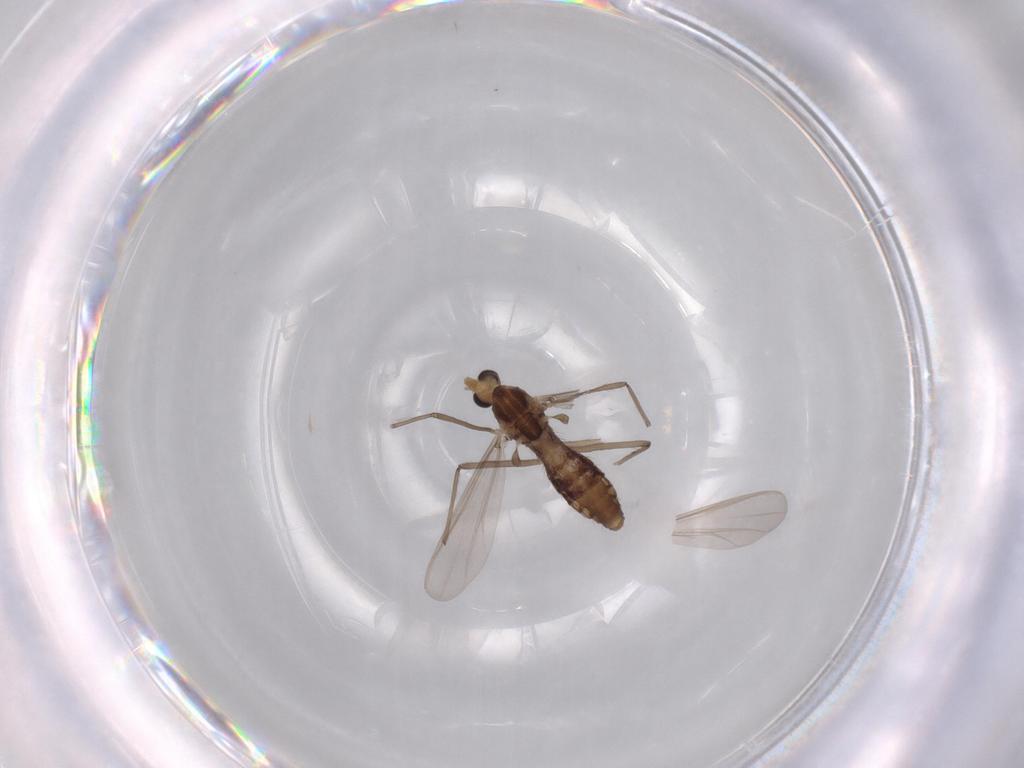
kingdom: Animalia
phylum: Arthropoda
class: Insecta
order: Diptera
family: Chironomidae
